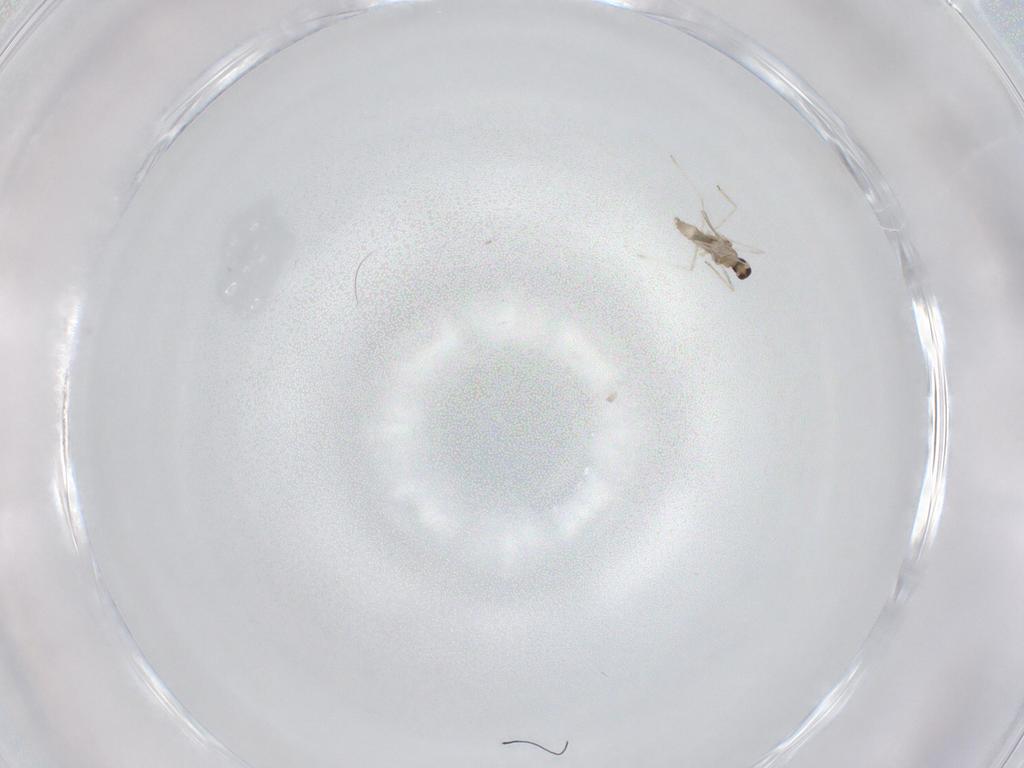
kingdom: Animalia
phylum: Arthropoda
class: Insecta
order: Diptera
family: Cecidomyiidae
